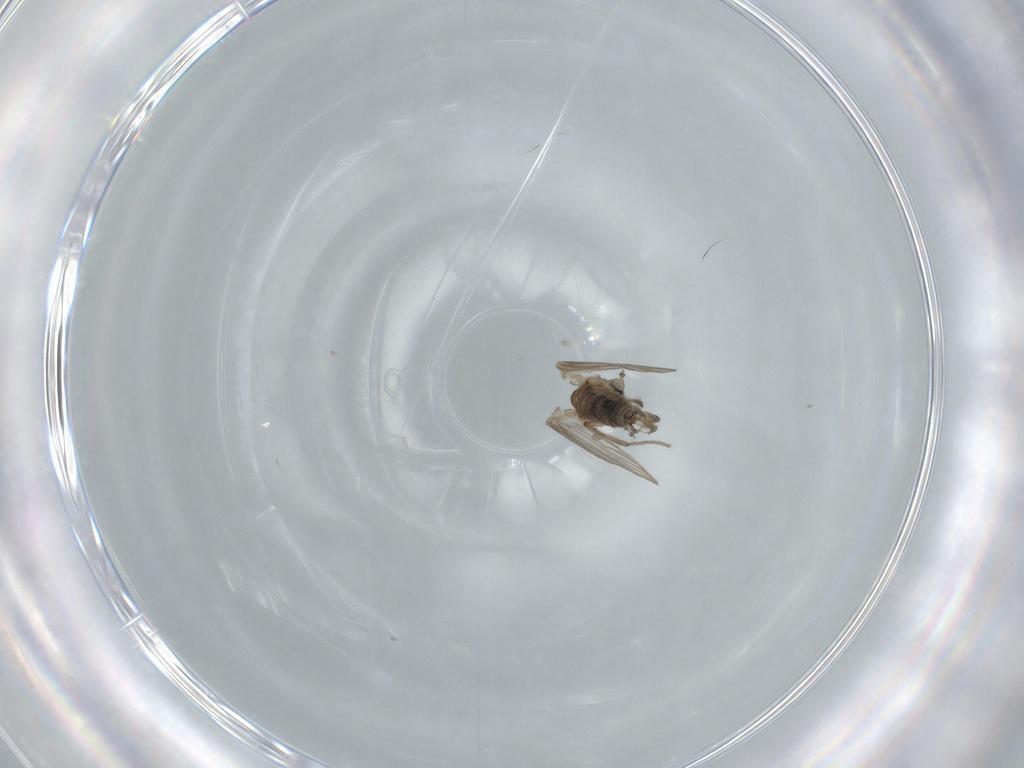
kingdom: Animalia
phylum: Arthropoda
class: Insecta
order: Diptera
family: Psychodidae
